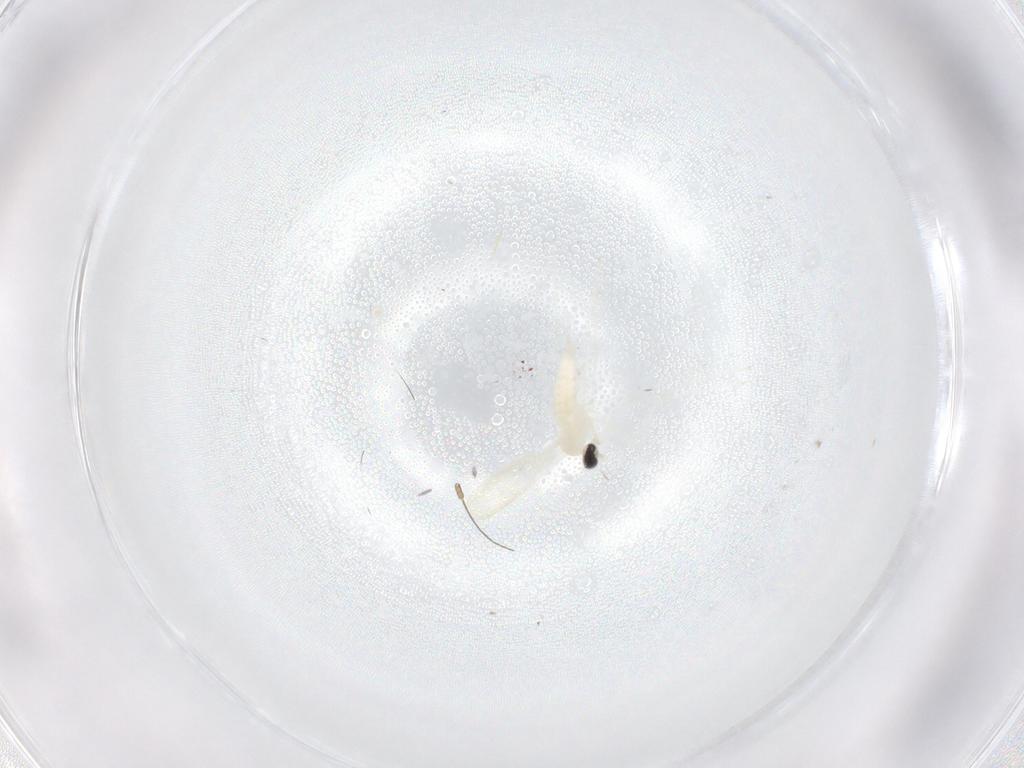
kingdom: Animalia
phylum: Arthropoda
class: Insecta
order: Diptera
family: Cecidomyiidae
